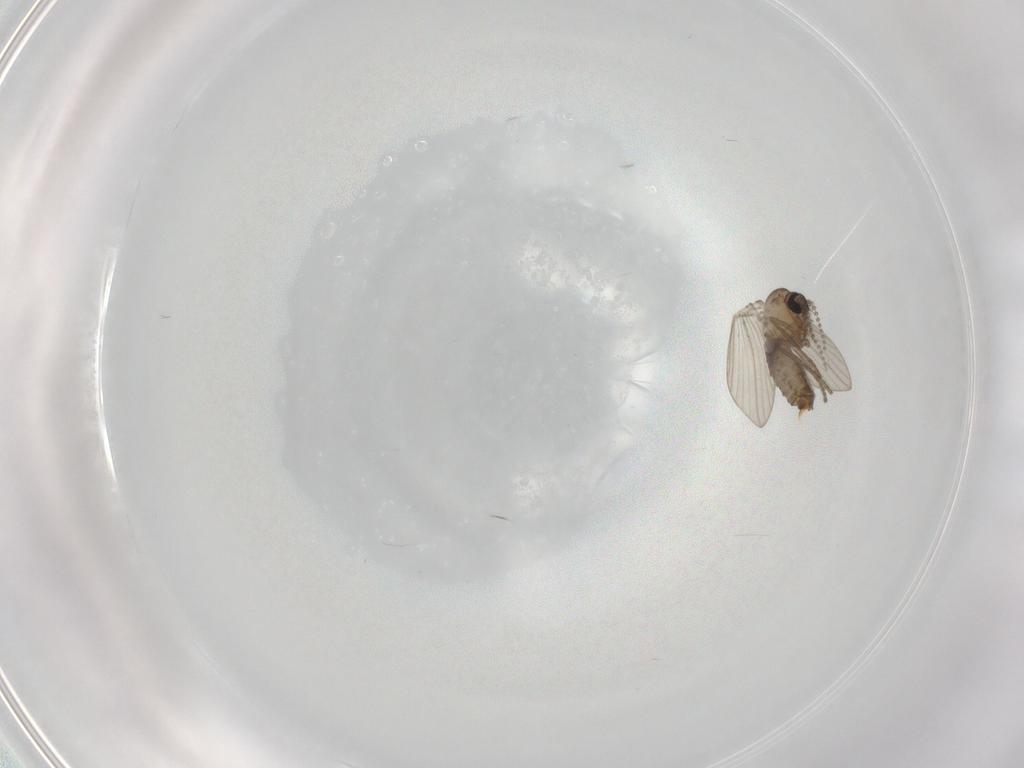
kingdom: Animalia
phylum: Arthropoda
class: Insecta
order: Diptera
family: Psychodidae
